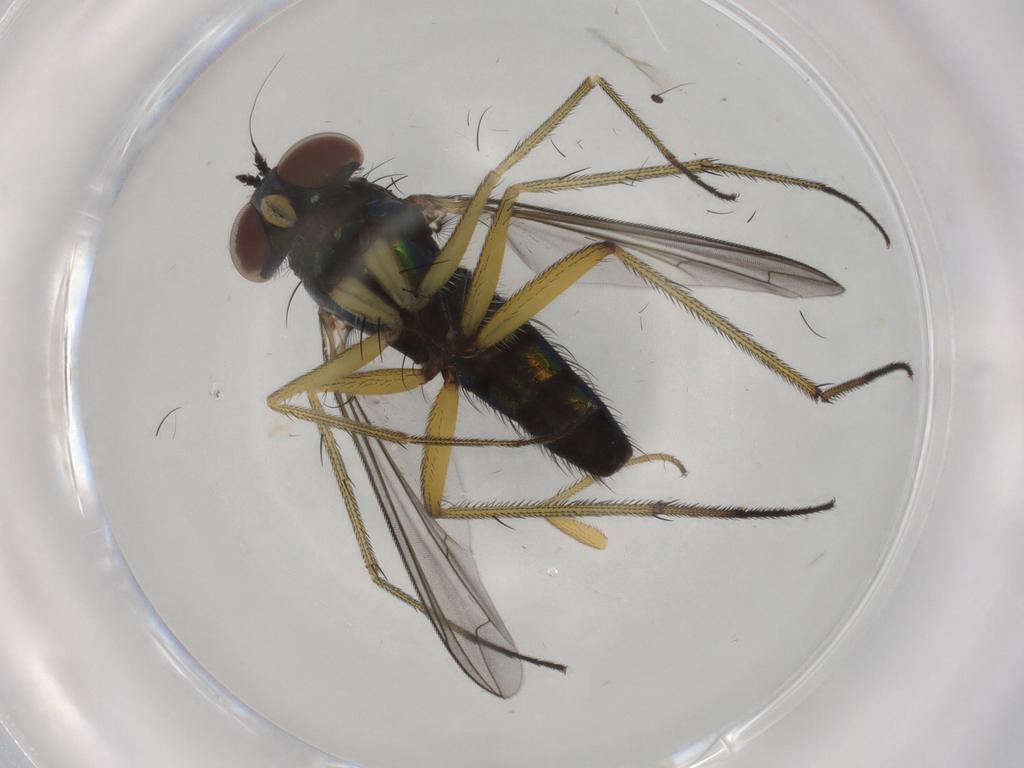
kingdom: Animalia
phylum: Arthropoda
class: Insecta
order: Diptera
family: Dolichopodidae
